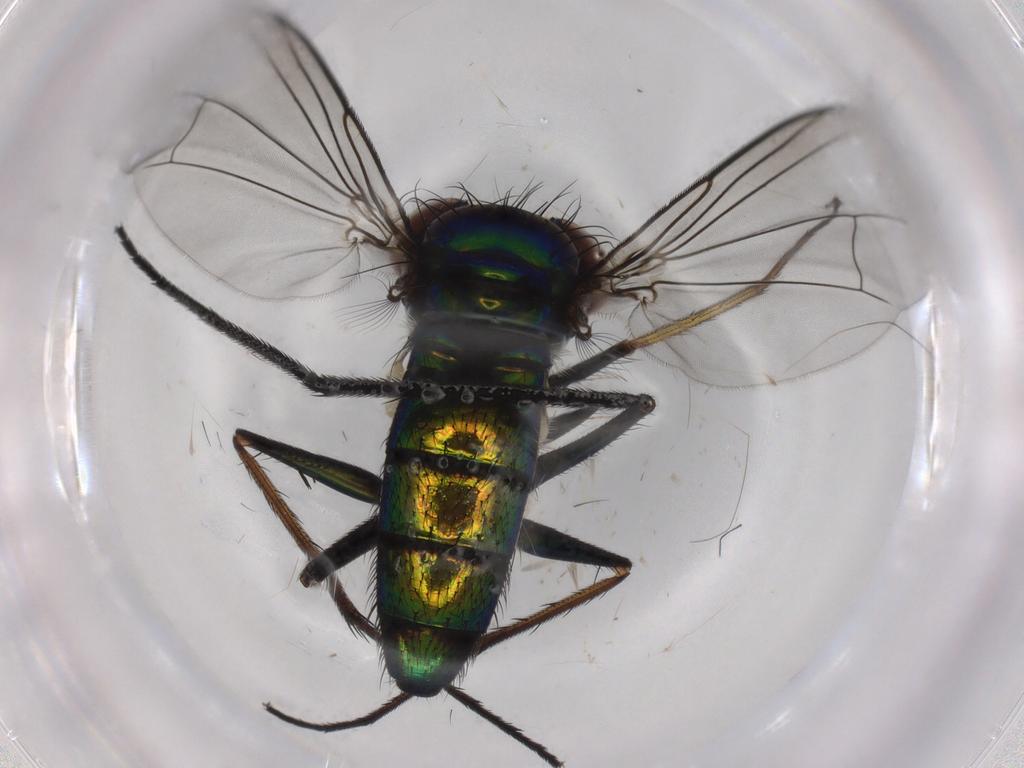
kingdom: Animalia
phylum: Arthropoda
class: Insecta
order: Diptera
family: Dolichopodidae
